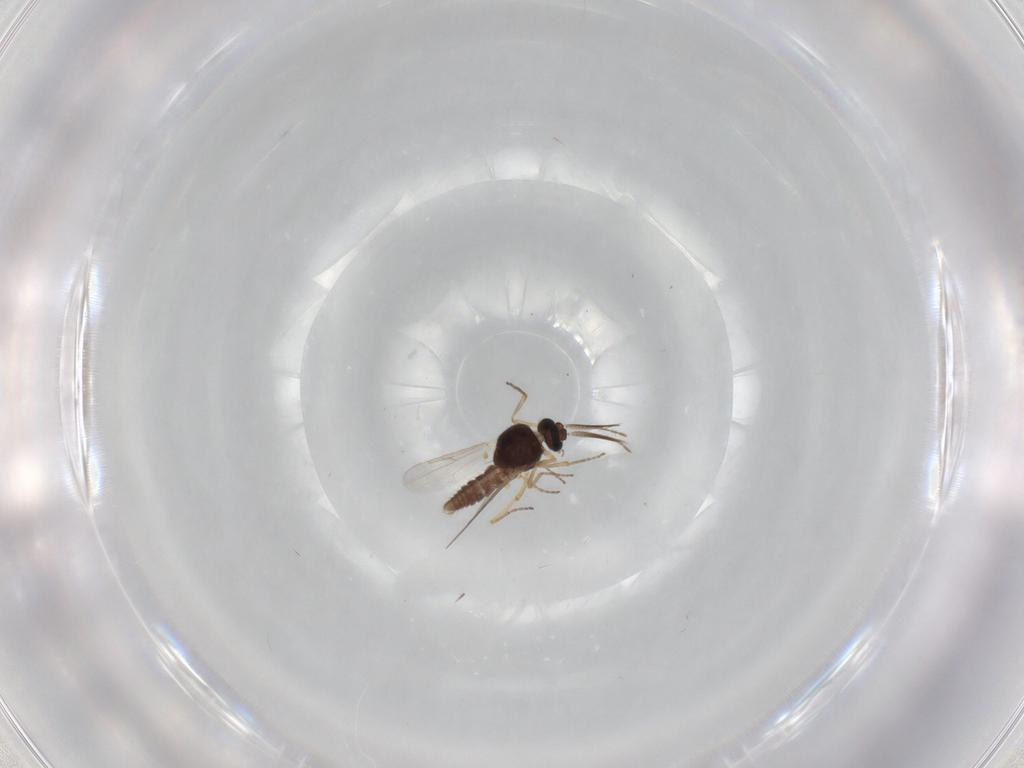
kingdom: Animalia
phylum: Arthropoda
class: Insecta
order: Diptera
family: Ceratopogonidae
